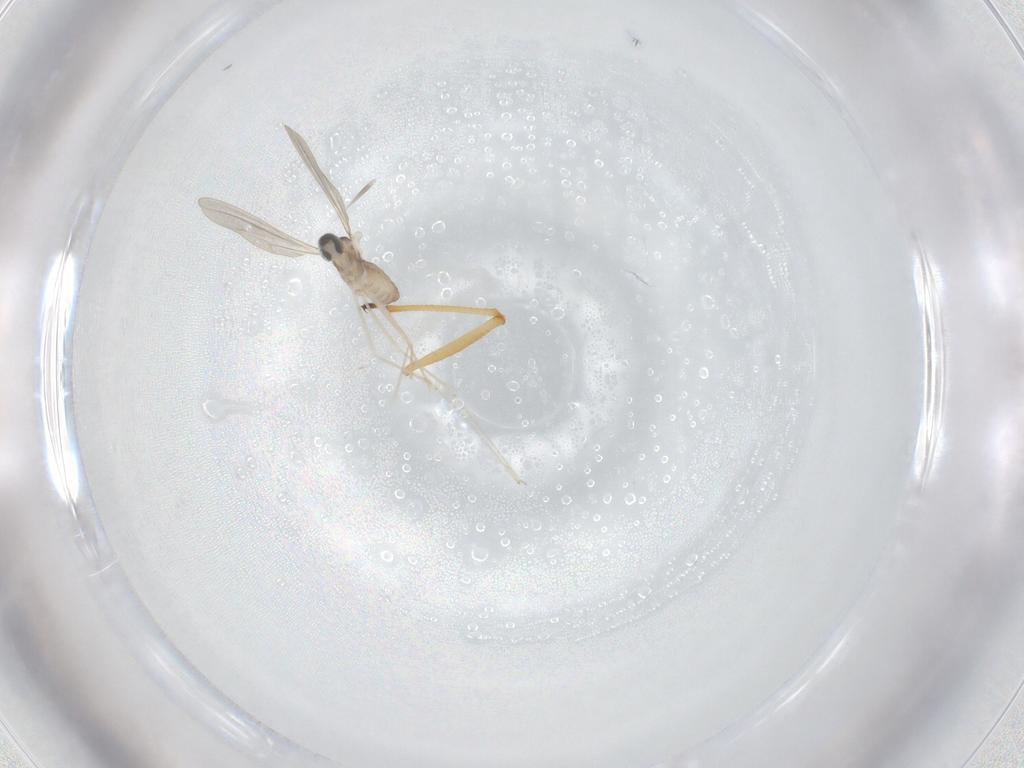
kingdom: Animalia
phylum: Arthropoda
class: Insecta
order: Diptera
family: Cecidomyiidae
